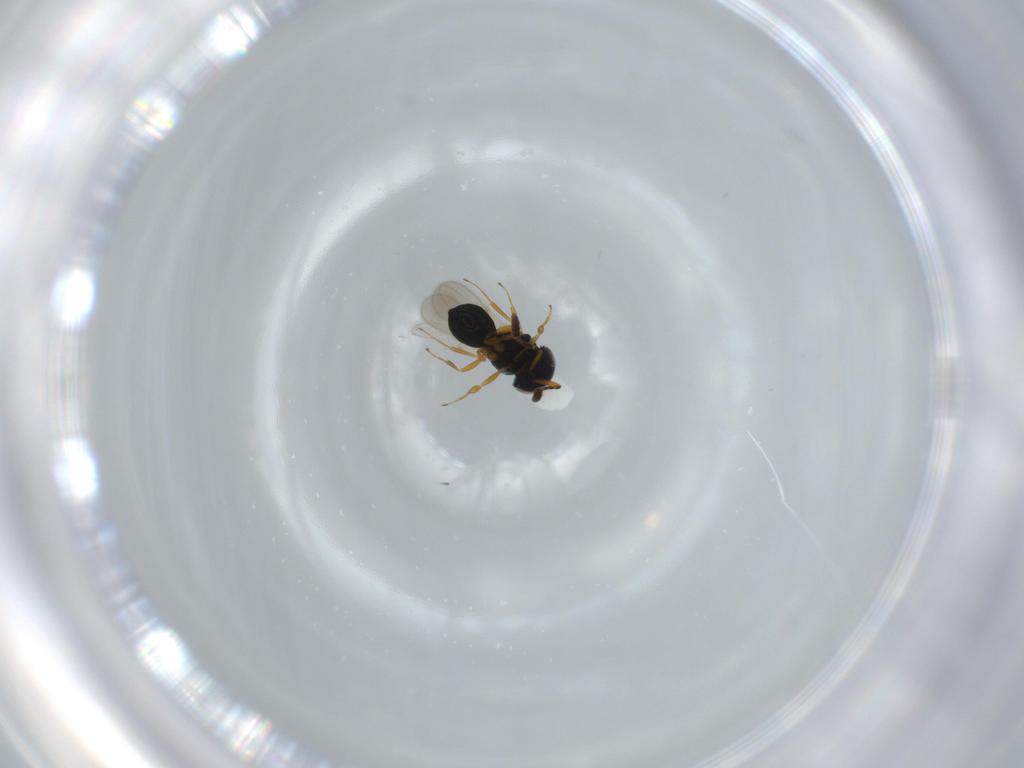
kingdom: Animalia
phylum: Arthropoda
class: Insecta
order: Hymenoptera
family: Scelionidae
